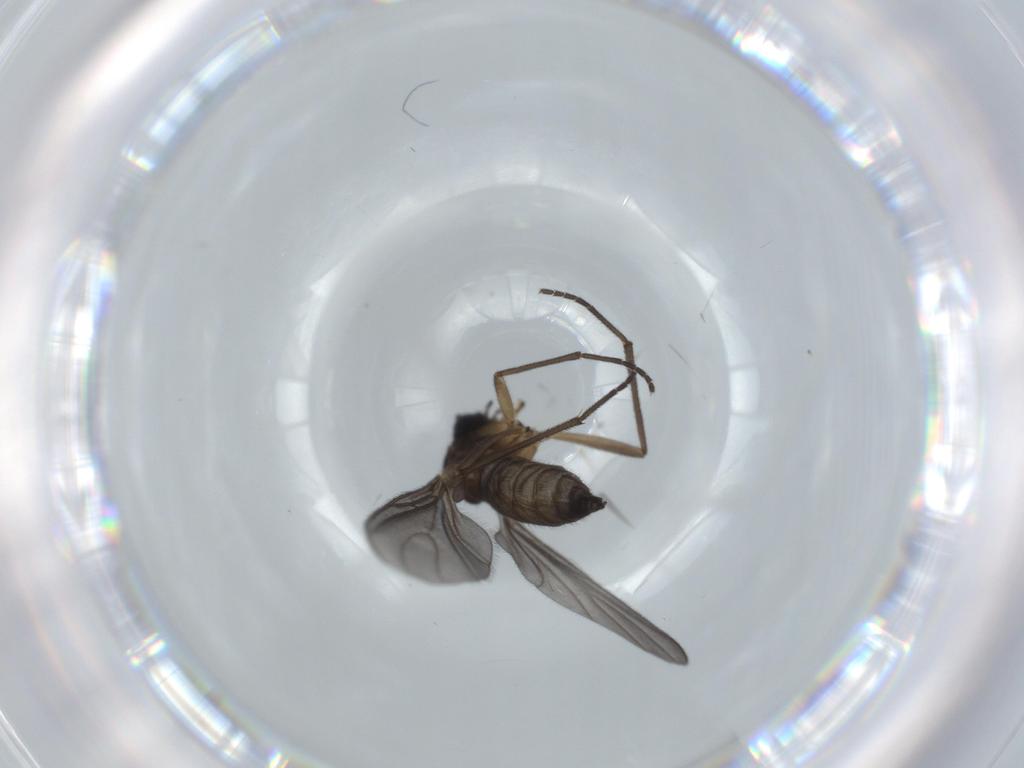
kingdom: Animalia
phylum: Arthropoda
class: Insecta
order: Diptera
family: Sciaridae
